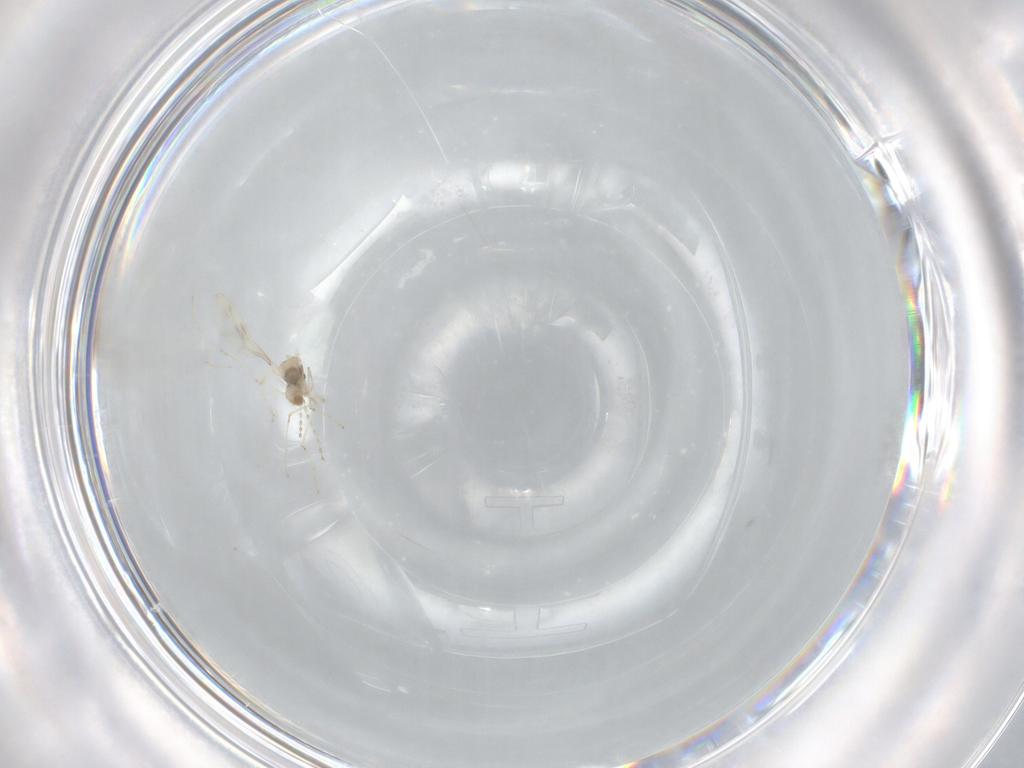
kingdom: Animalia
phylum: Arthropoda
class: Insecta
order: Diptera
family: Cecidomyiidae
